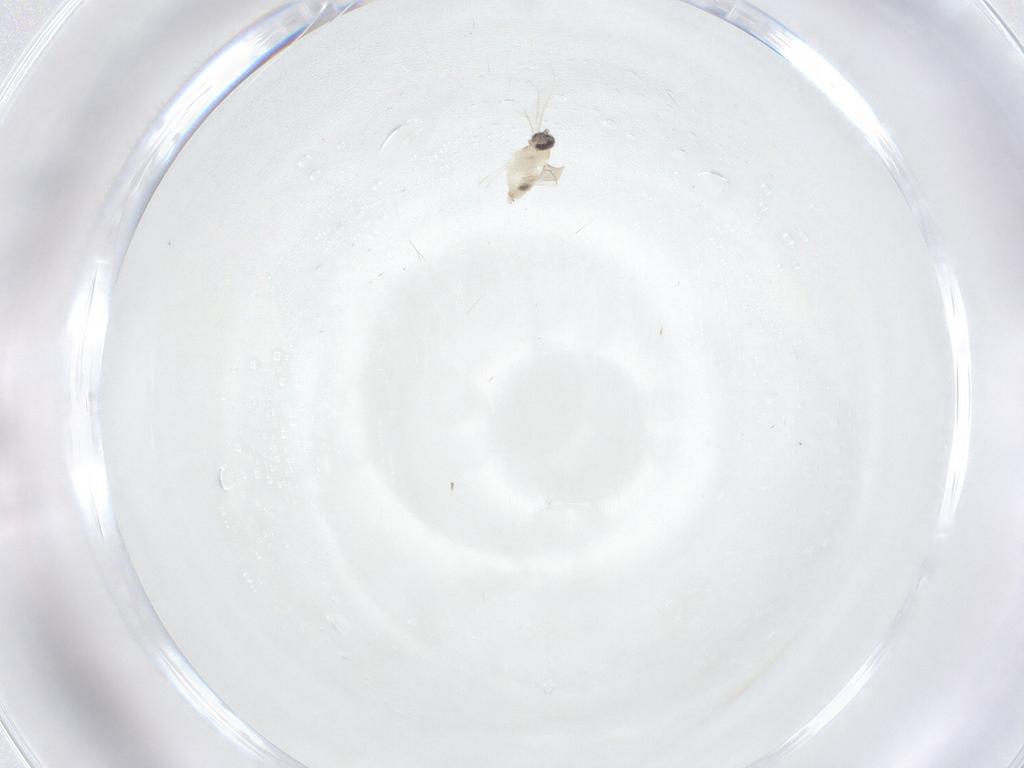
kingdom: Animalia
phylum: Arthropoda
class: Insecta
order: Diptera
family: Cecidomyiidae
